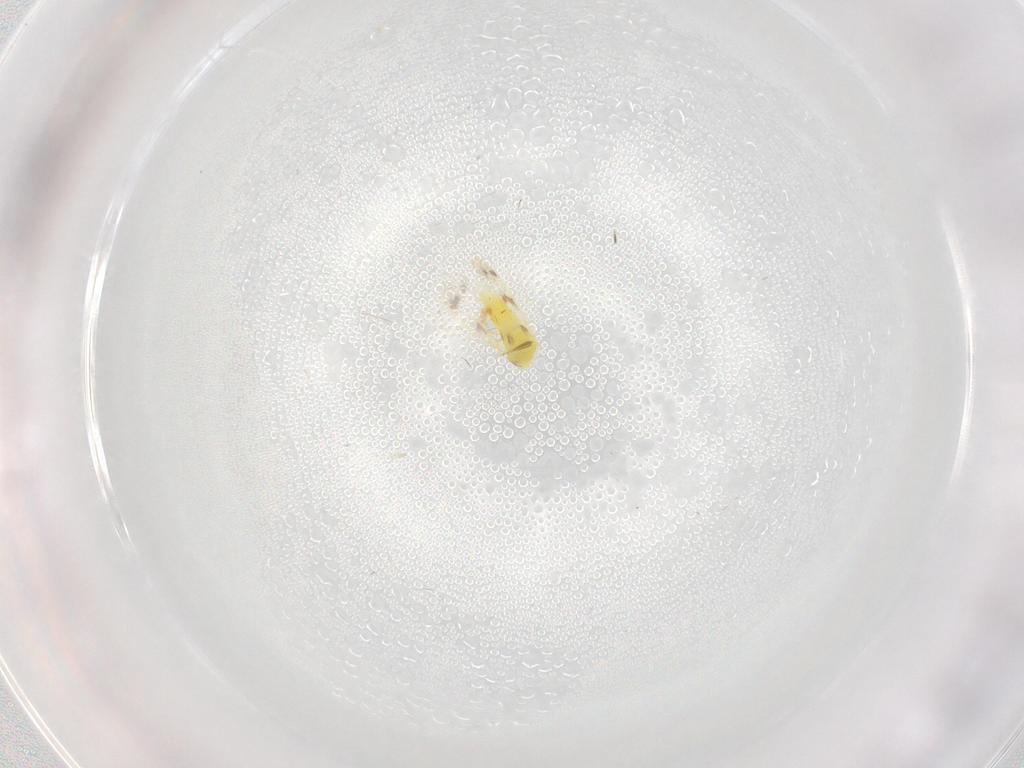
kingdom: Animalia
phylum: Arthropoda
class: Insecta
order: Hemiptera
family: Aleyrodidae
